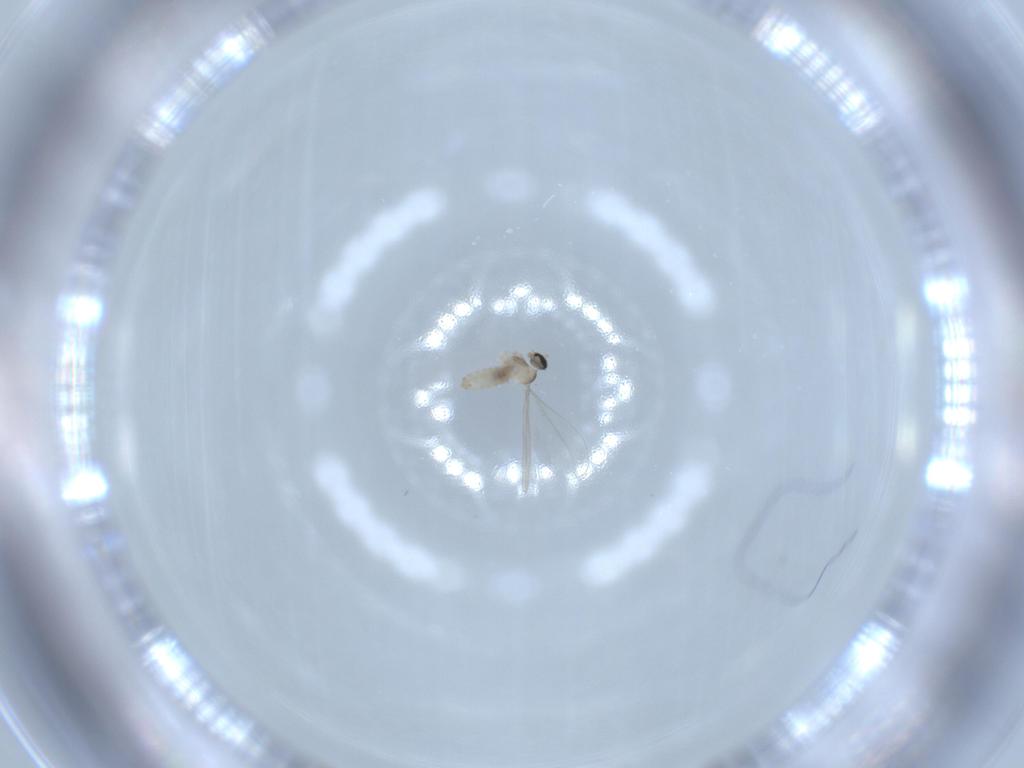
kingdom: Animalia
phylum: Arthropoda
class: Insecta
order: Diptera
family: Cecidomyiidae
